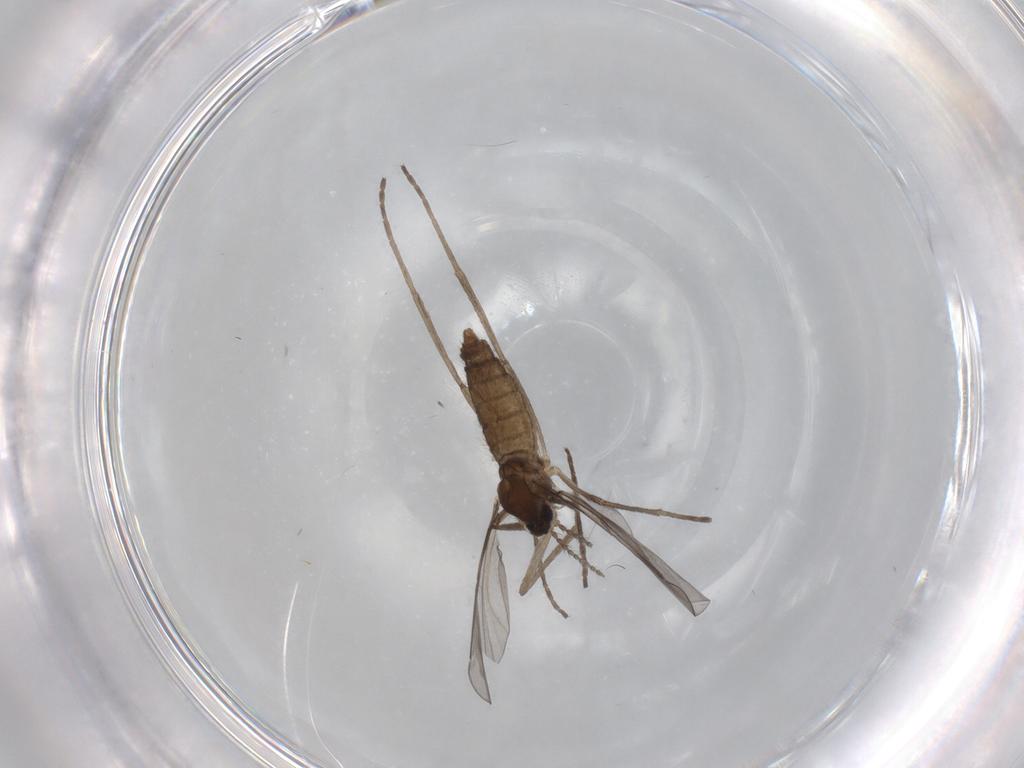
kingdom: Animalia
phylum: Arthropoda
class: Insecta
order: Diptera
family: Cecidomyiidae
